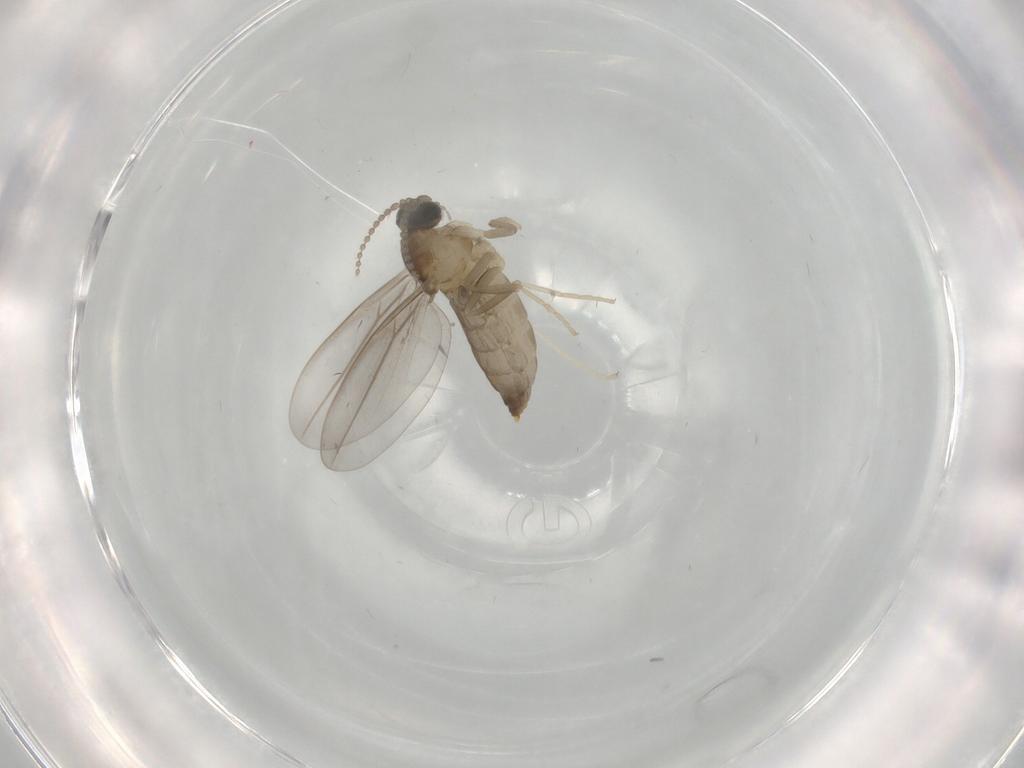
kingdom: Animalia
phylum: Arthropoda
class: Insecta
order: Diptera
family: Cecidomyiidae
